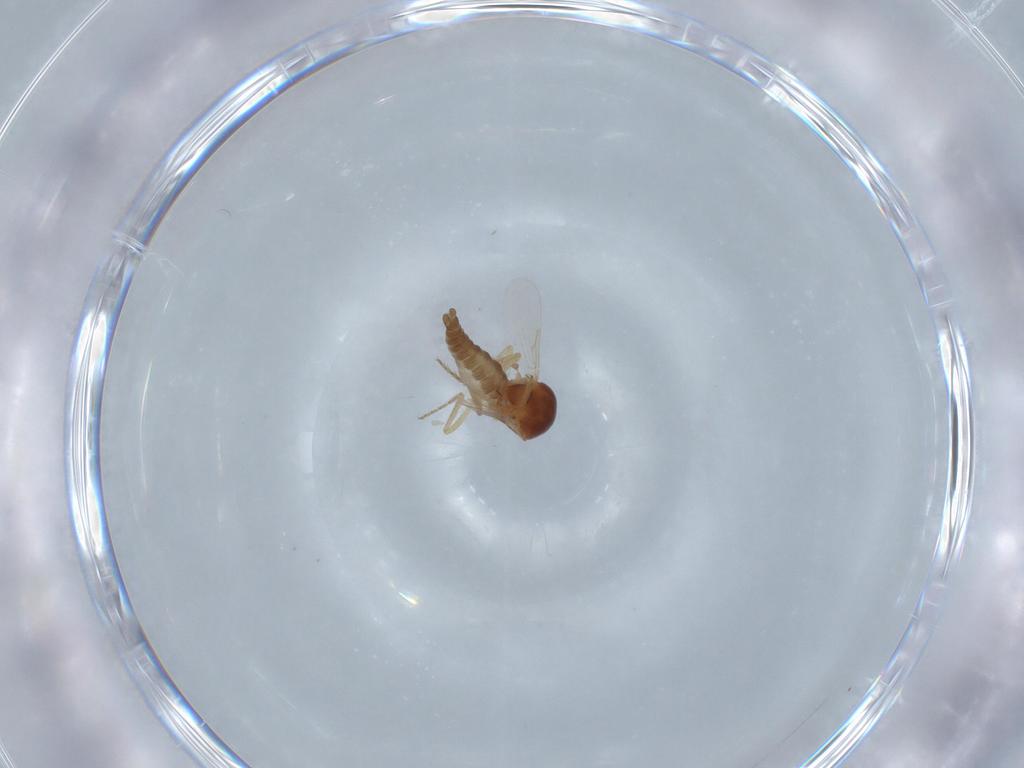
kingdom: Animalia
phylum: Arthropoda
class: Insecta
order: Diptera
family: Ceratopogonidae
